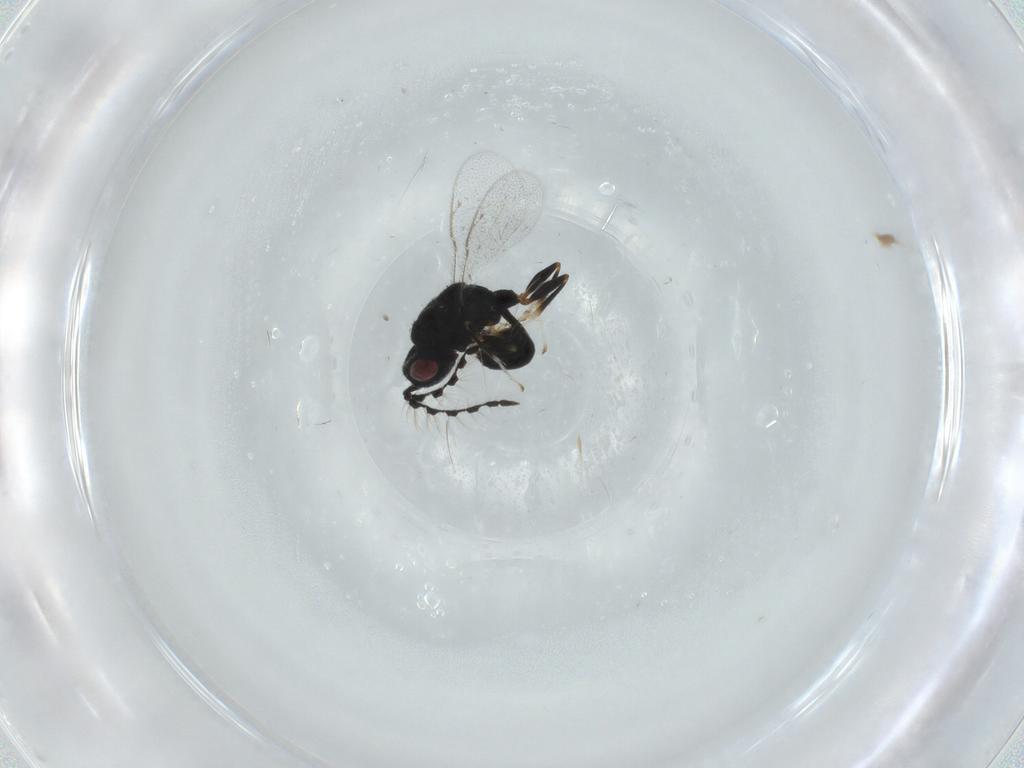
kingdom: Animalia
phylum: Arthropoda
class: Insecta
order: Hymenoptera
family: Formicidae
